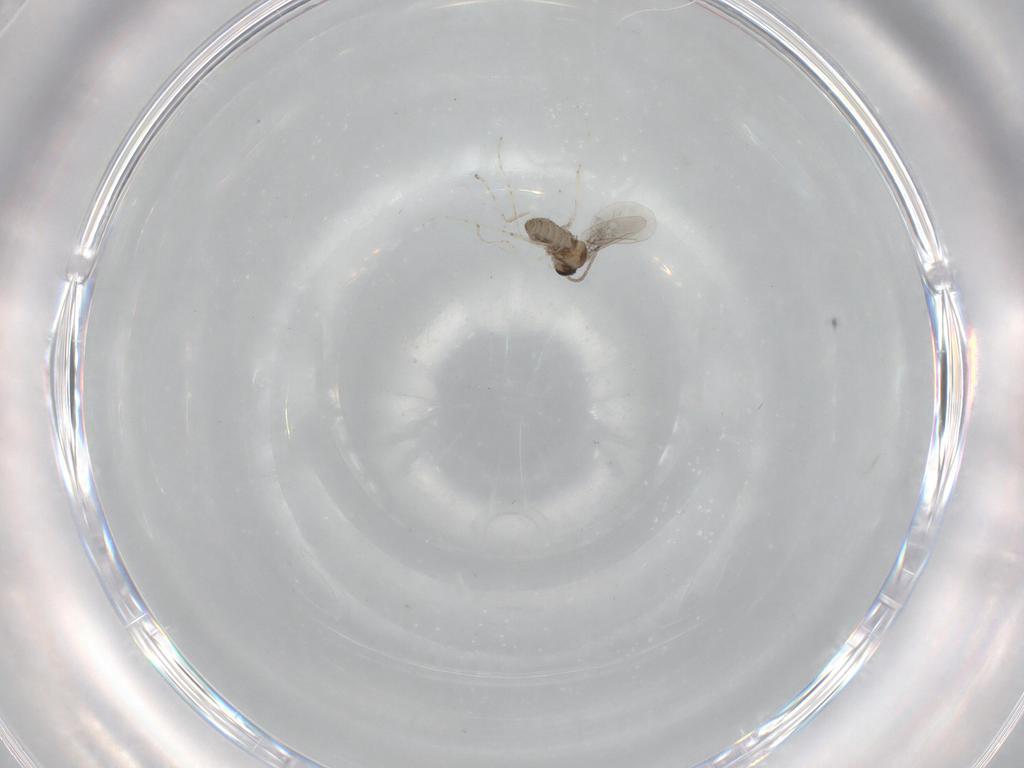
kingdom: Animalia
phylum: Arthropoda
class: Insecta
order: Diptera
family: Cecidomyiidae
